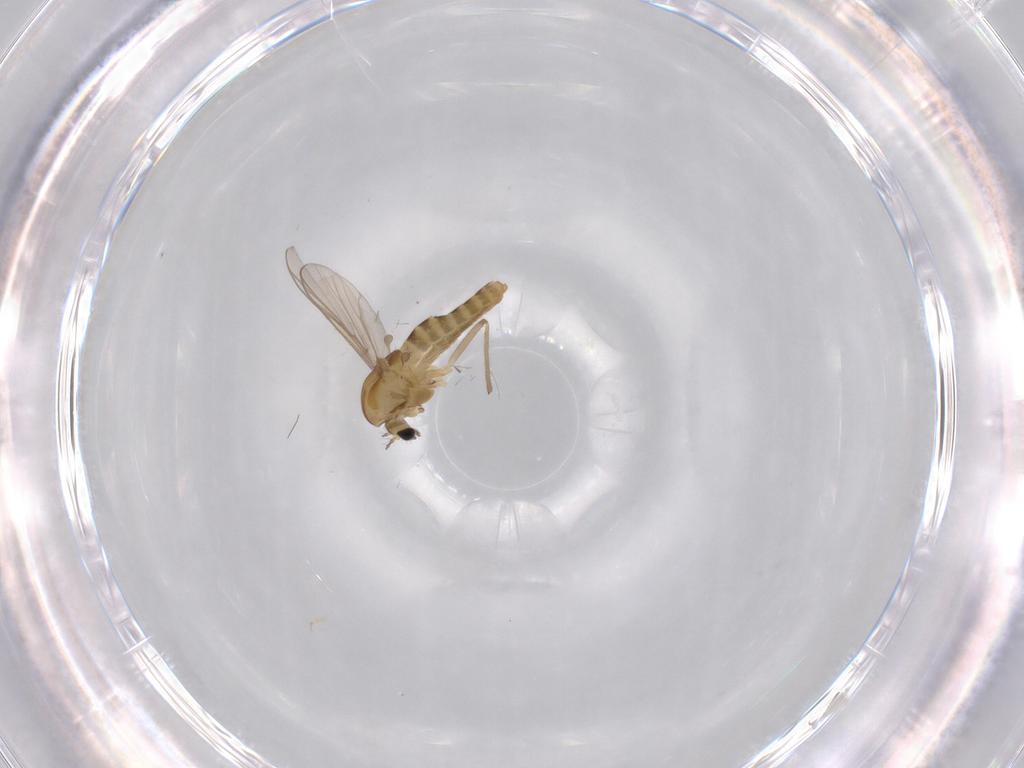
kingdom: Animalia
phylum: Arthropoda
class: Insecta
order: Diptera
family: Chironomidae
